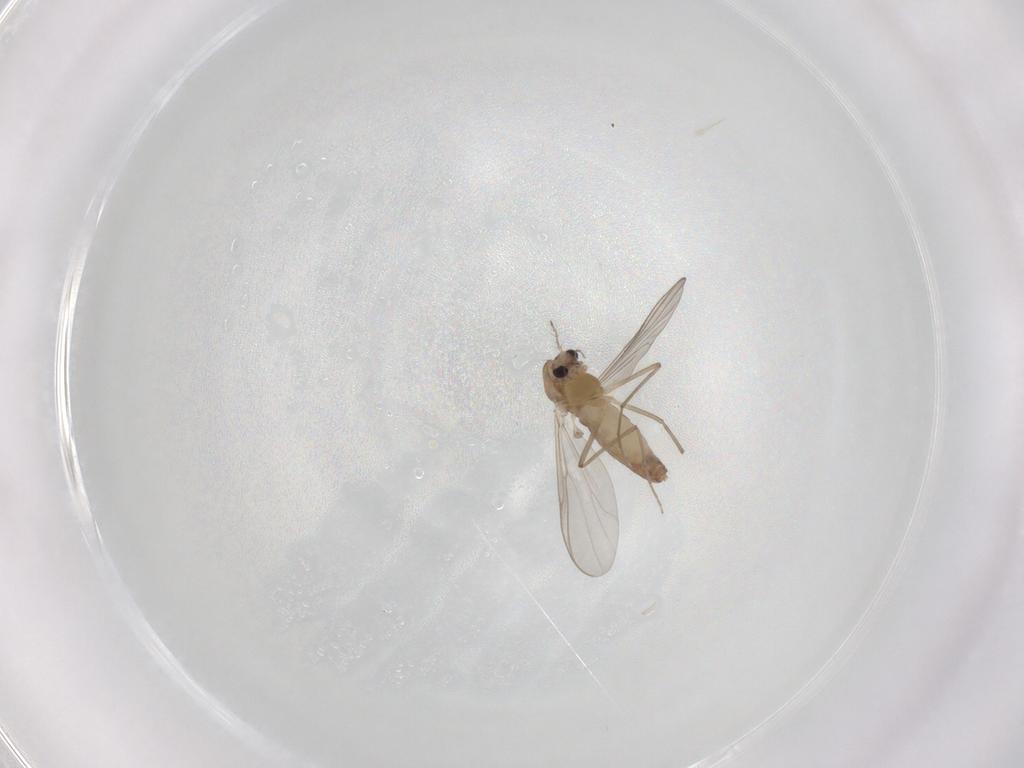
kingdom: Animalia
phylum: Arthropoda
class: Insecta
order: Diptera
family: Chironomidae
